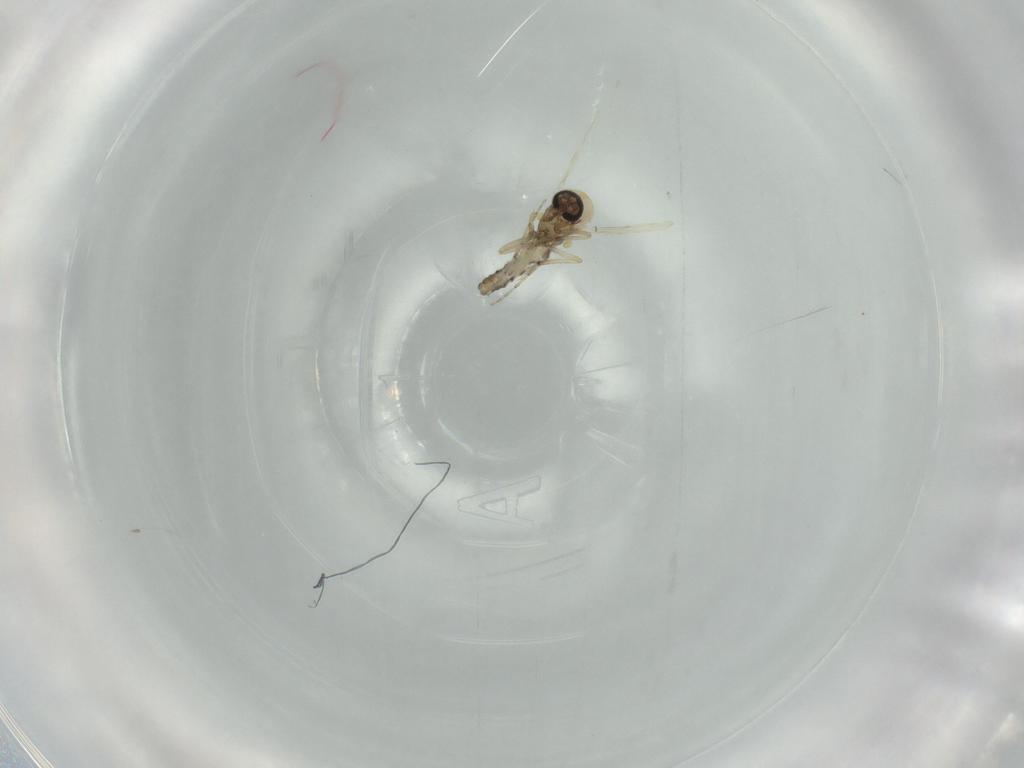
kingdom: Animalia
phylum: Arthropoda
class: Insecta
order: Diptera
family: Ceratopogonidae
